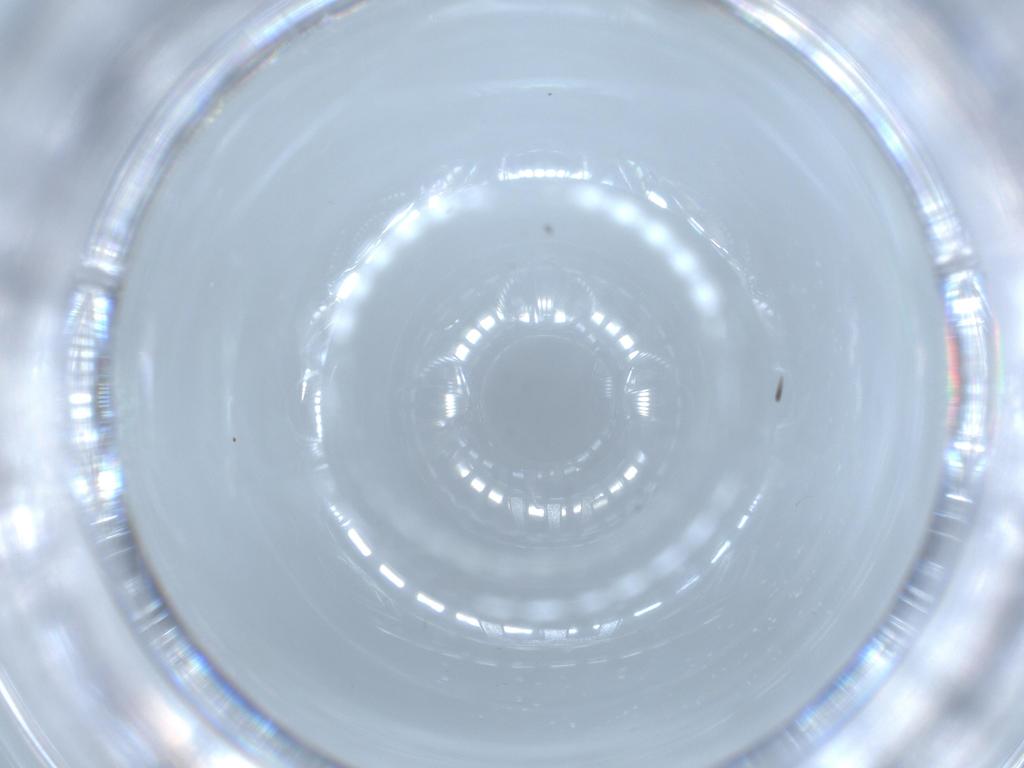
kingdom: Animalia
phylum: Arthropoda
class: Insecta
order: Coleoptera
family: Lampyridae
